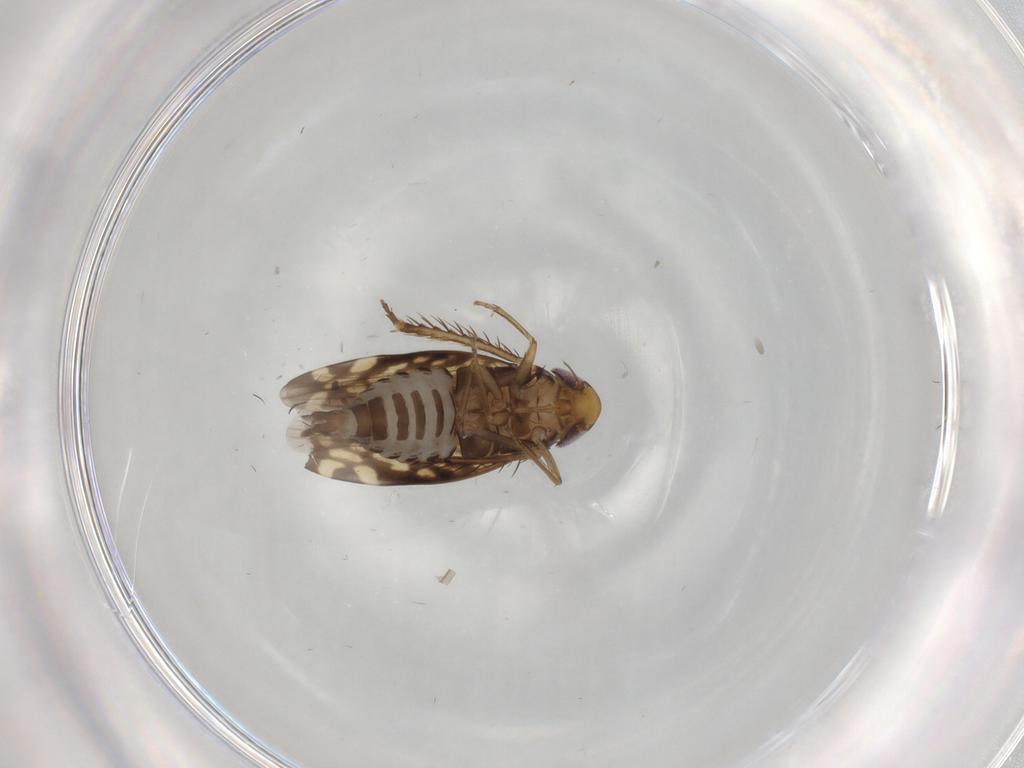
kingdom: Animalia
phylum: Arthropoda
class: Insecta
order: Hemiptera
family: Cicadellidae
